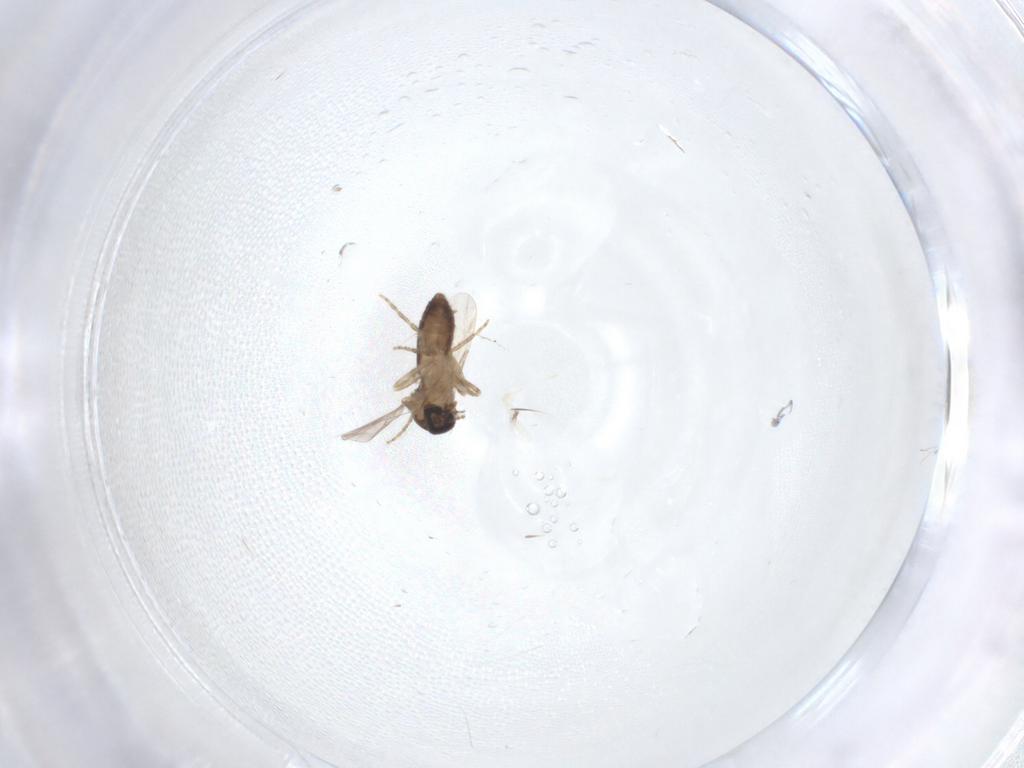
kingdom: Animalia
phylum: Arthropoda
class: Insecta
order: Diptera
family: Ceratopogonidae
